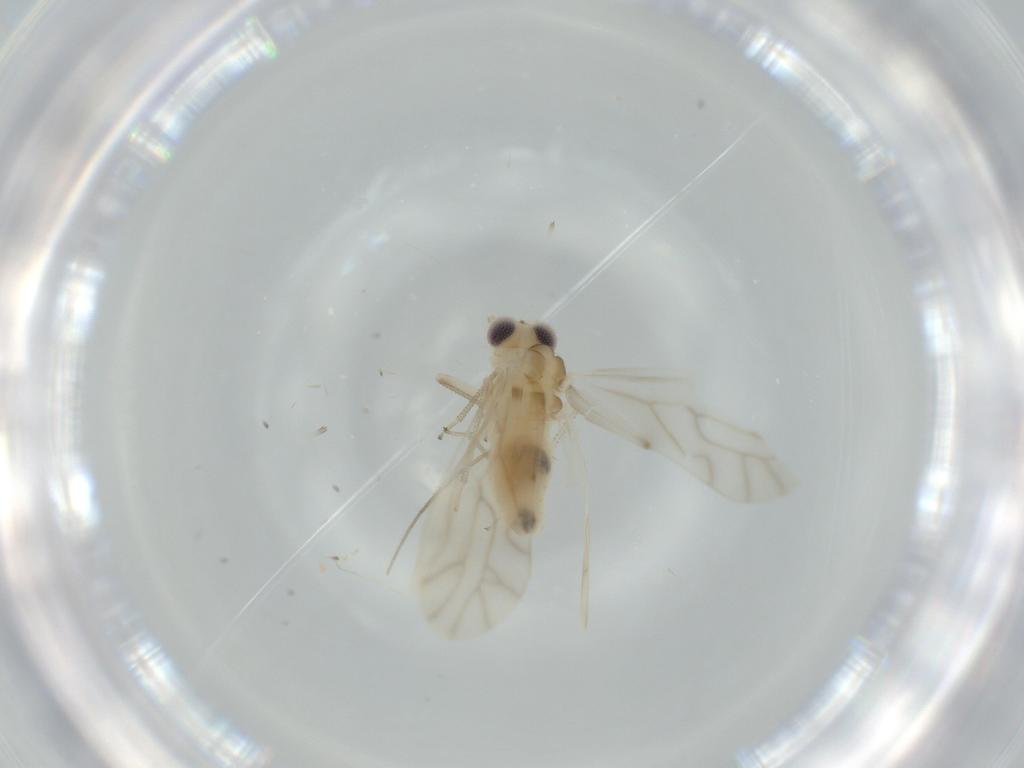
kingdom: Animalia
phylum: Arthropoda
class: Insecta
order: Psocodea
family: Caeciliusidae
